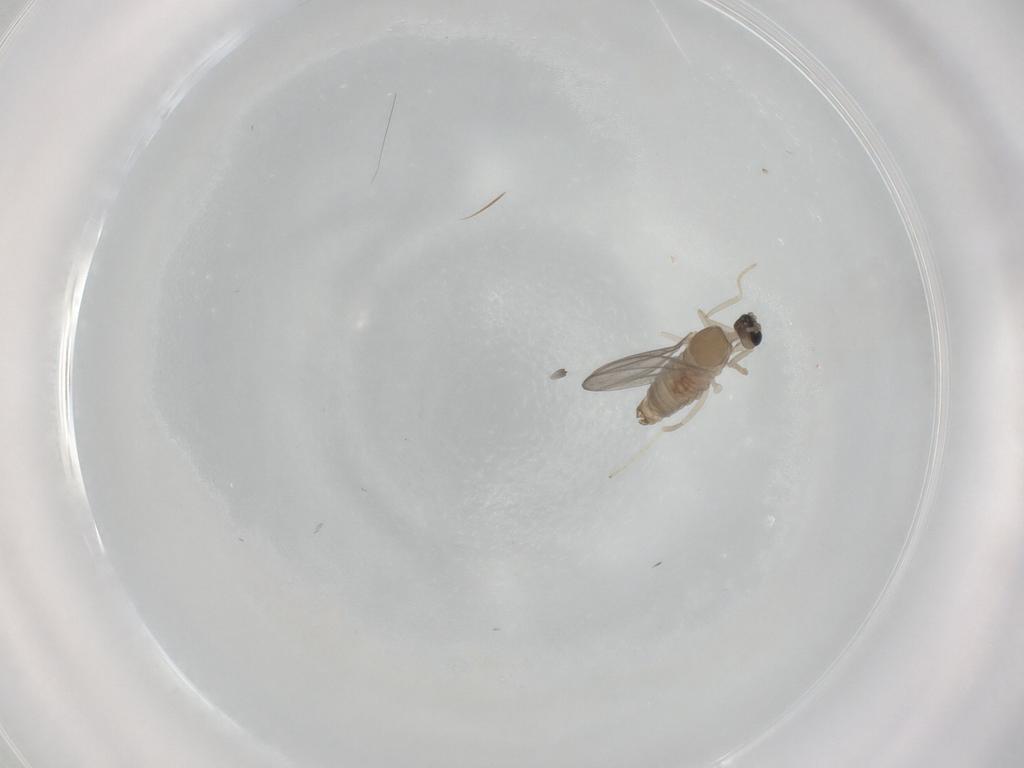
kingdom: Animalia
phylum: Arthropoda
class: Insecta
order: Diptera
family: Cecidomyiidae
